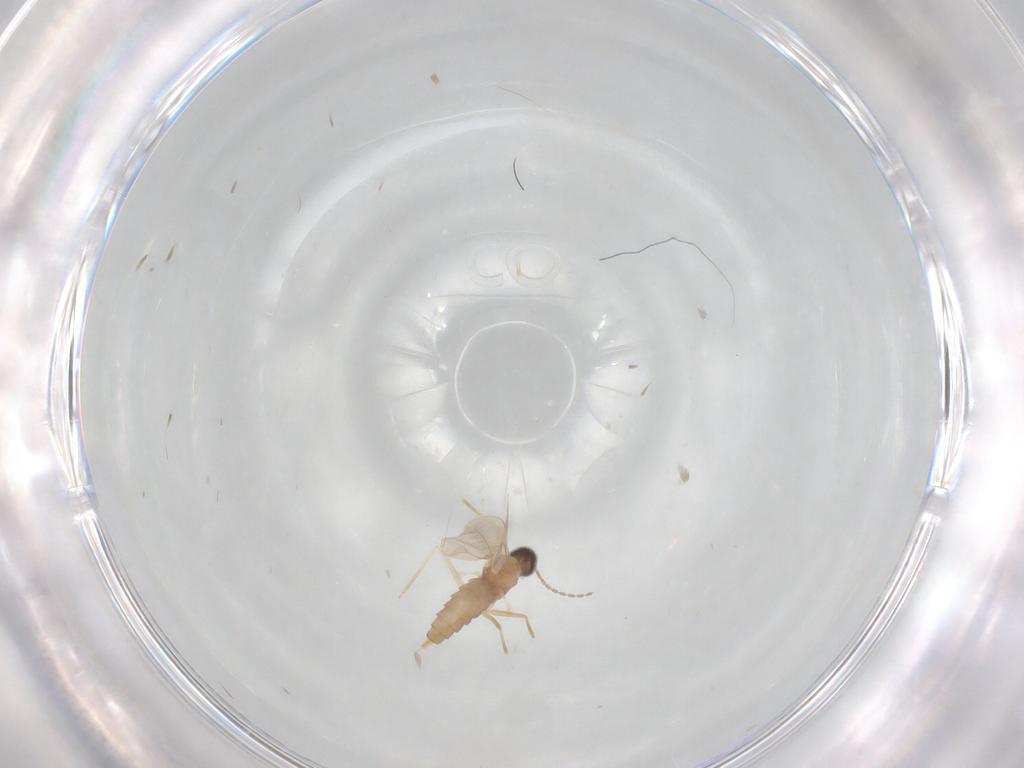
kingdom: Animalia
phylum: Arthropoda
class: Insecta
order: Diptera
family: Cecidomyiidae
